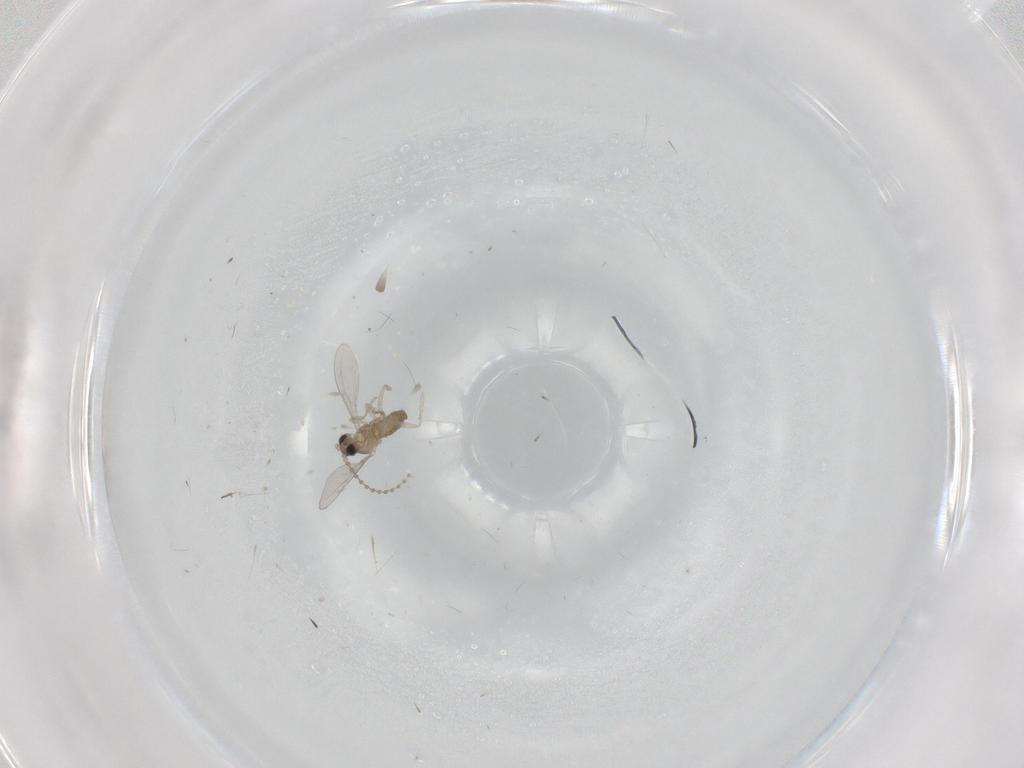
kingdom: Animalia
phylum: Arthropoda
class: Insecta
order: Diptera
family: Cecidomyiidae
